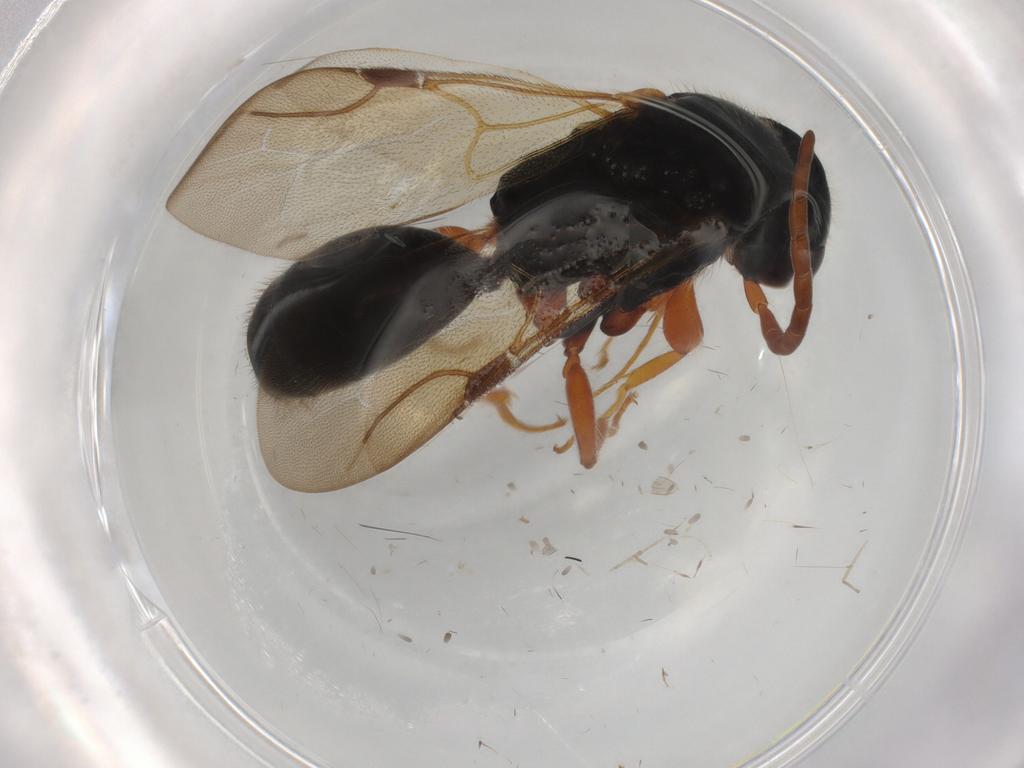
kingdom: Animalia
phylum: Arthropoda
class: Insecta
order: Hymenoptera
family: Bethylidae
